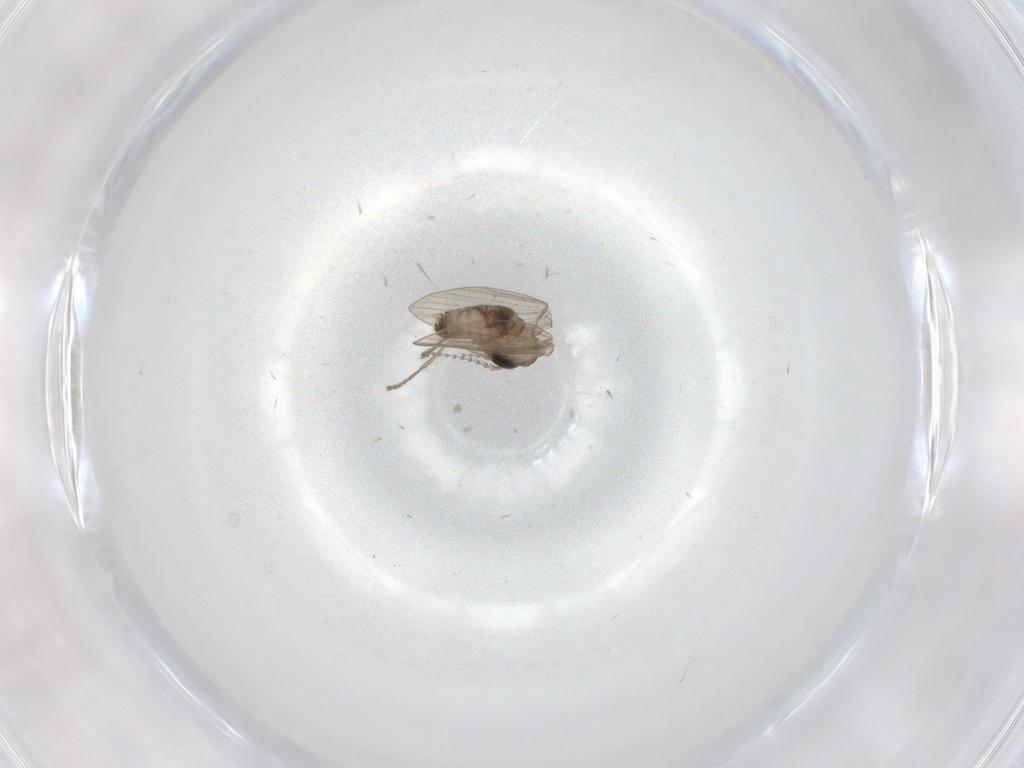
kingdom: Animalia
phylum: Arthropoda
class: Insecta
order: Diptera
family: Psychodidae
